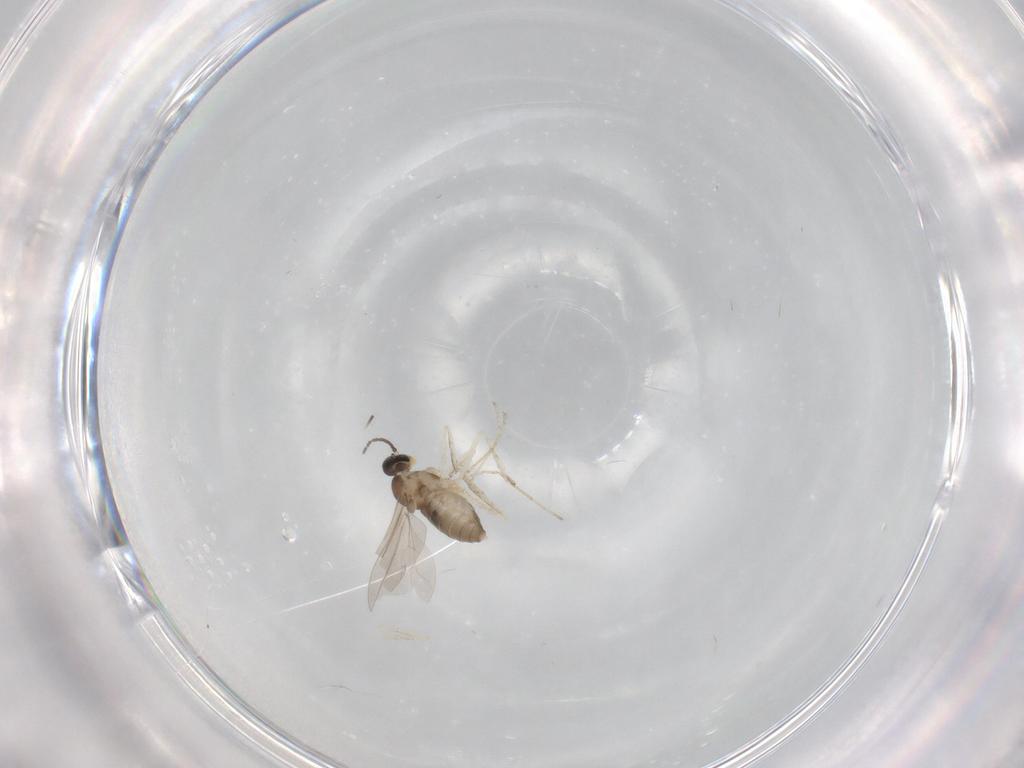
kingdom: Animalia
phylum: Arthropoda
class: Insecta
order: Diptera
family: Cecidomyiidae
